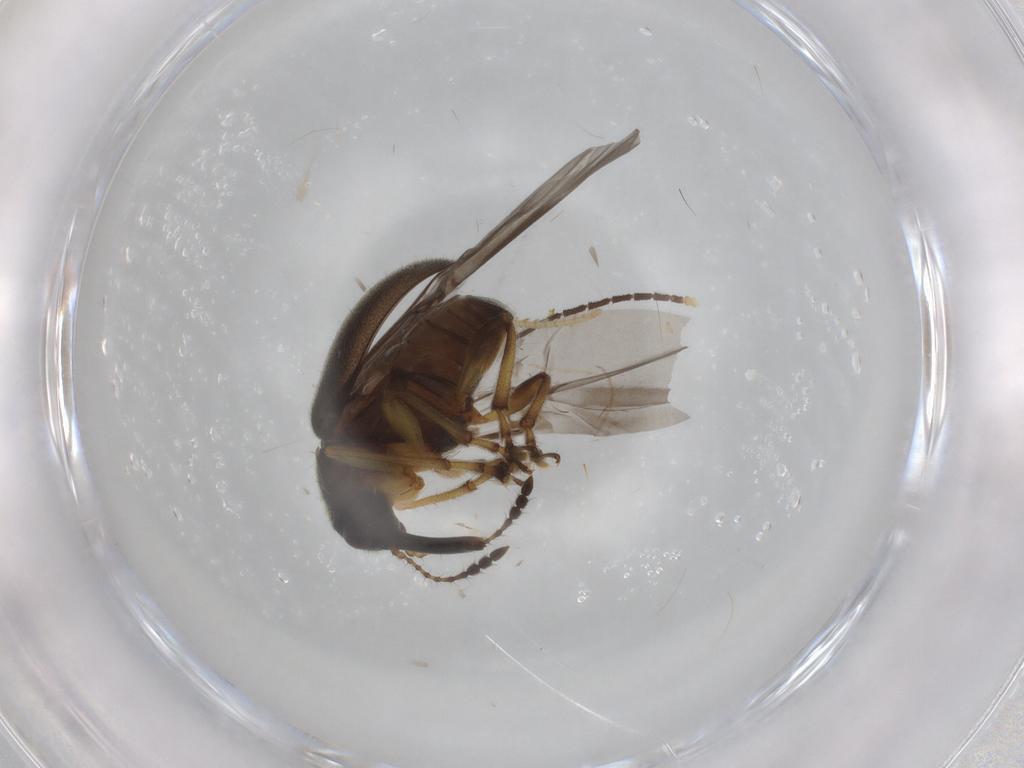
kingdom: Animalia
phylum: Arthropoda
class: Insecta
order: Coleoptera
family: Attelabidae
